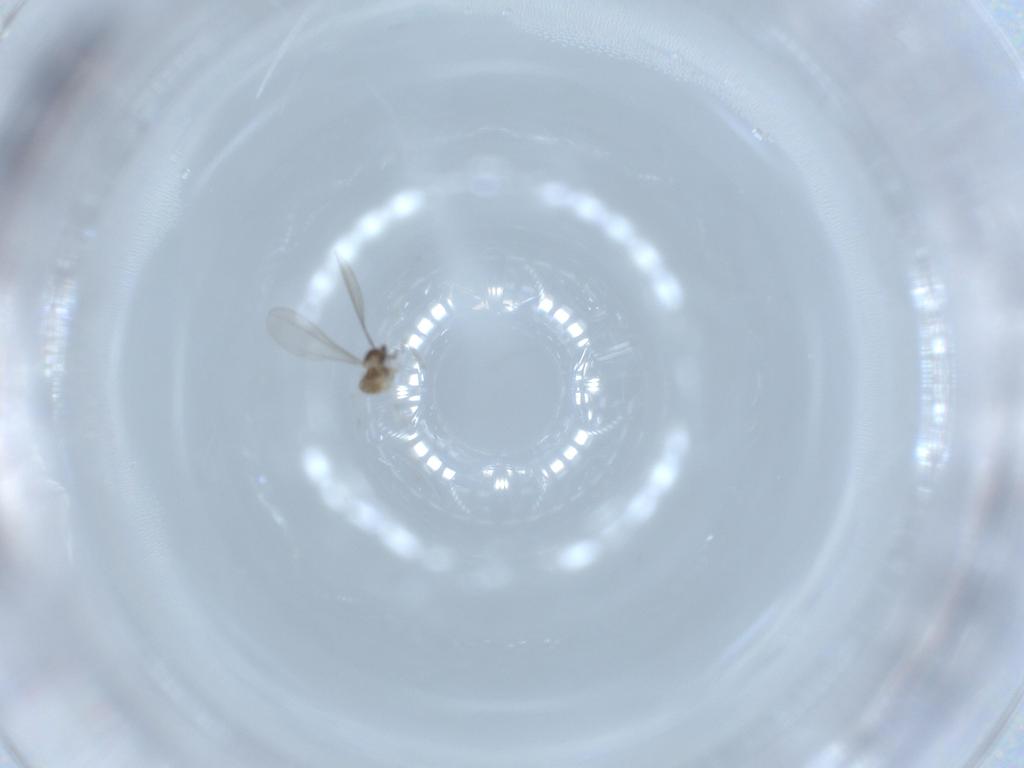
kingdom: Animalia
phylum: Arthropoda
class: Insecta
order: Diptera
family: Cecidomyiidae
